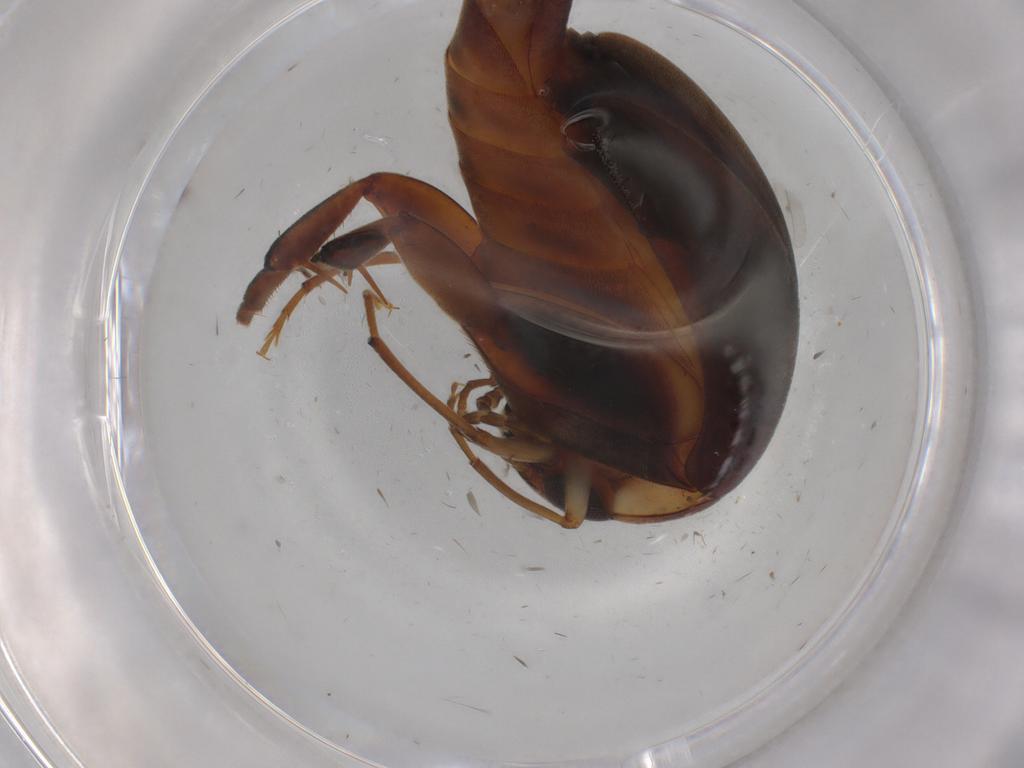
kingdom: Animalia
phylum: Arthropoda
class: Insecta
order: Coleoptera
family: Mordellidae
